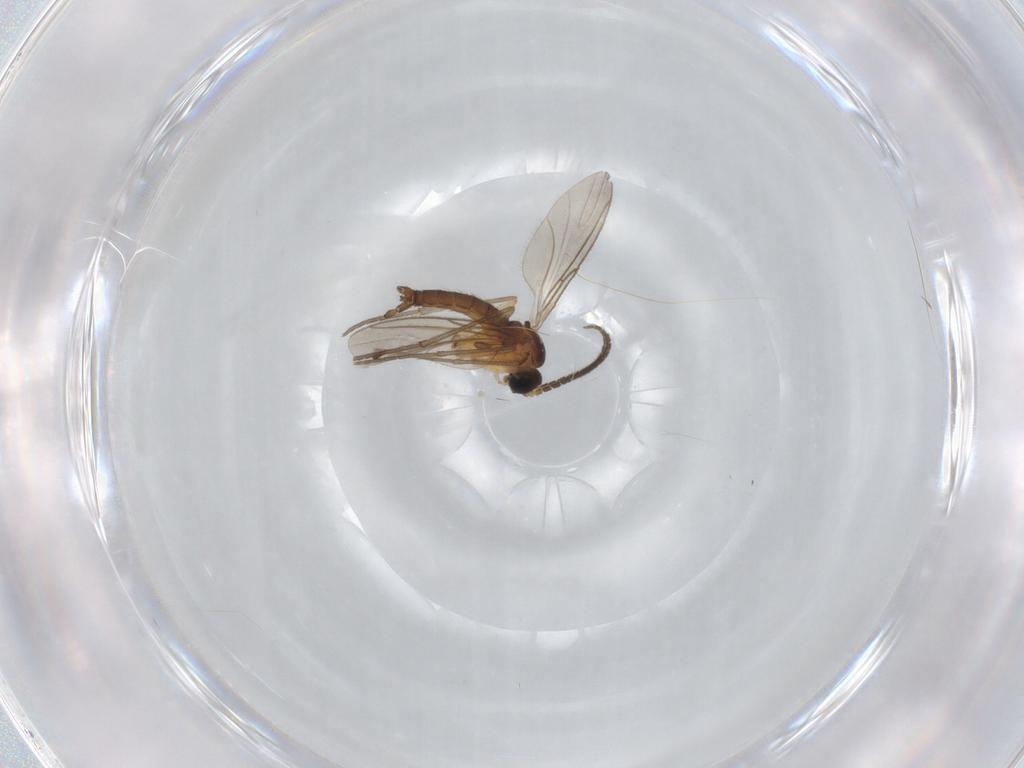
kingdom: Animalia
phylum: Arthropoda
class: Insecta
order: Diptera
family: Sciaridae
